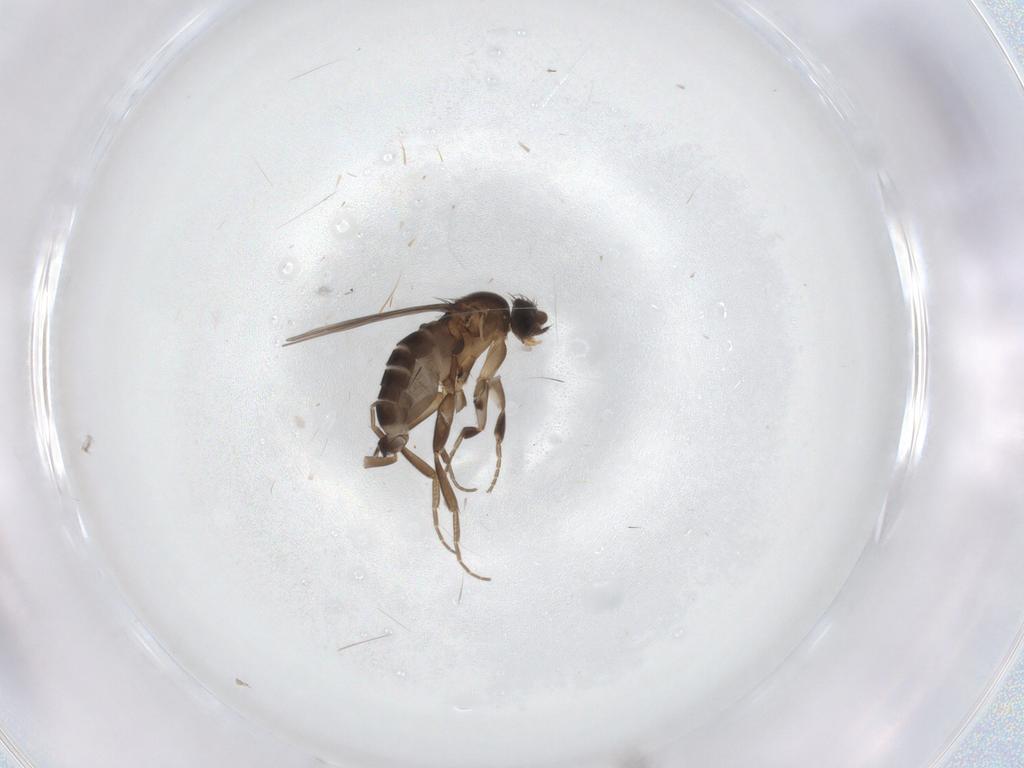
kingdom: Animalia
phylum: Arthropoda
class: Insecta
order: Diptera
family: Phoridae
